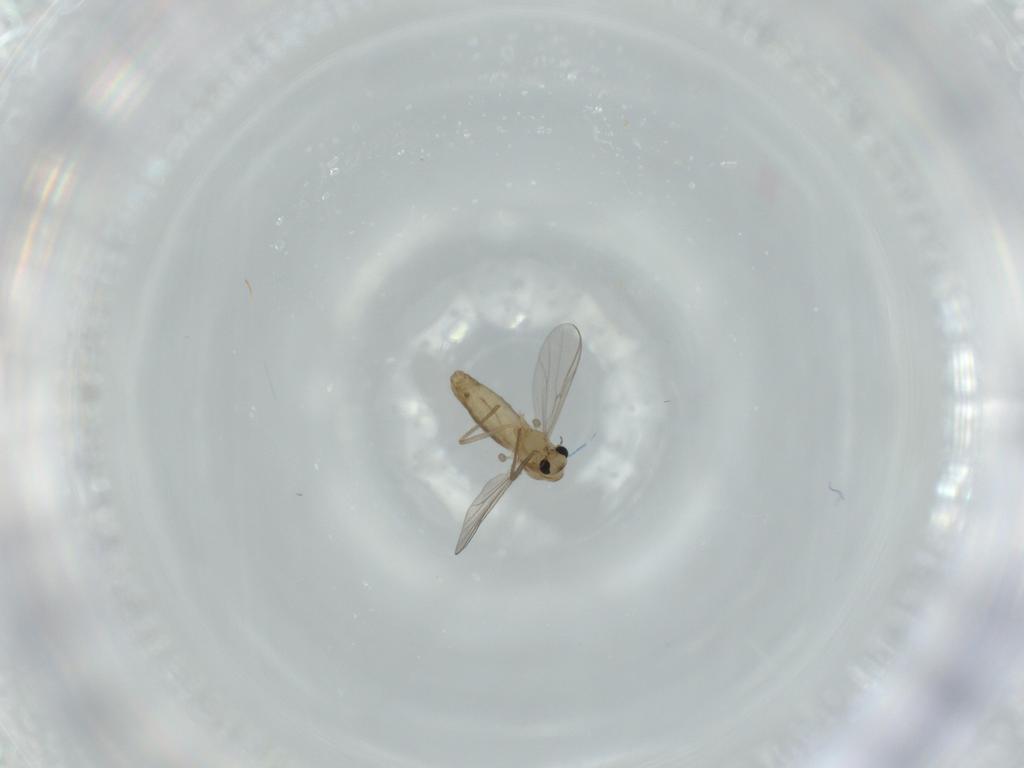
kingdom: Animalia
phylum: Arthropoda
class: Insecta
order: Diptera
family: Chironomidae
